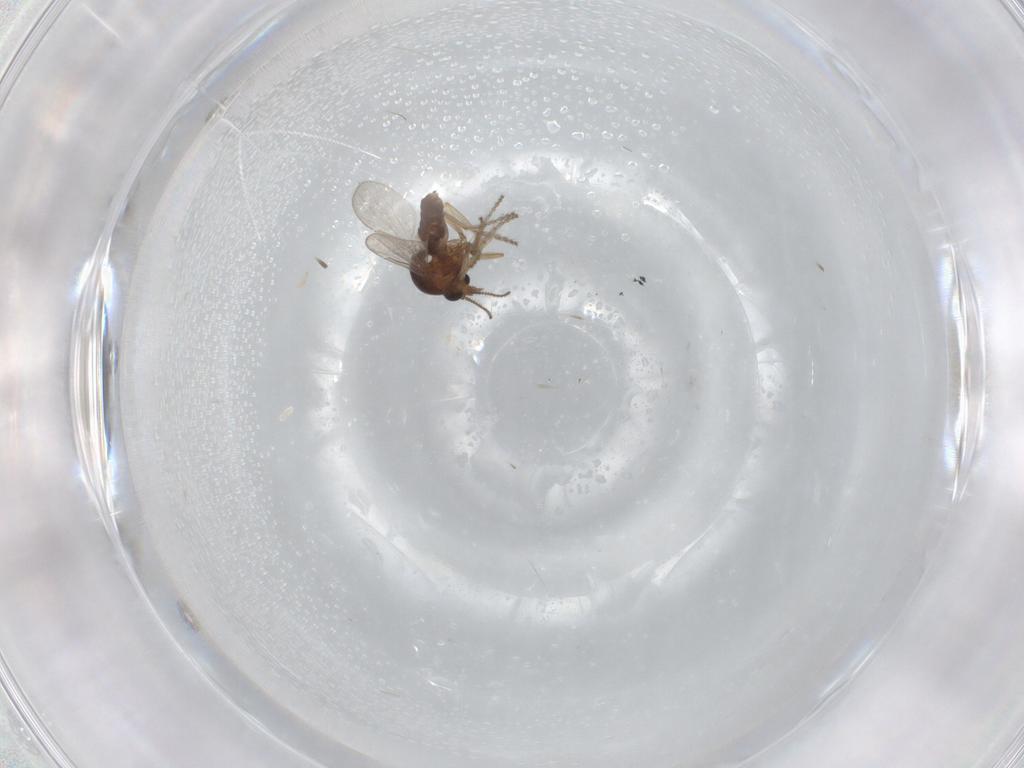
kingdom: Animalia
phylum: Arthropoda
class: Insecta
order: Diptera
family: Ceratopogonidae
